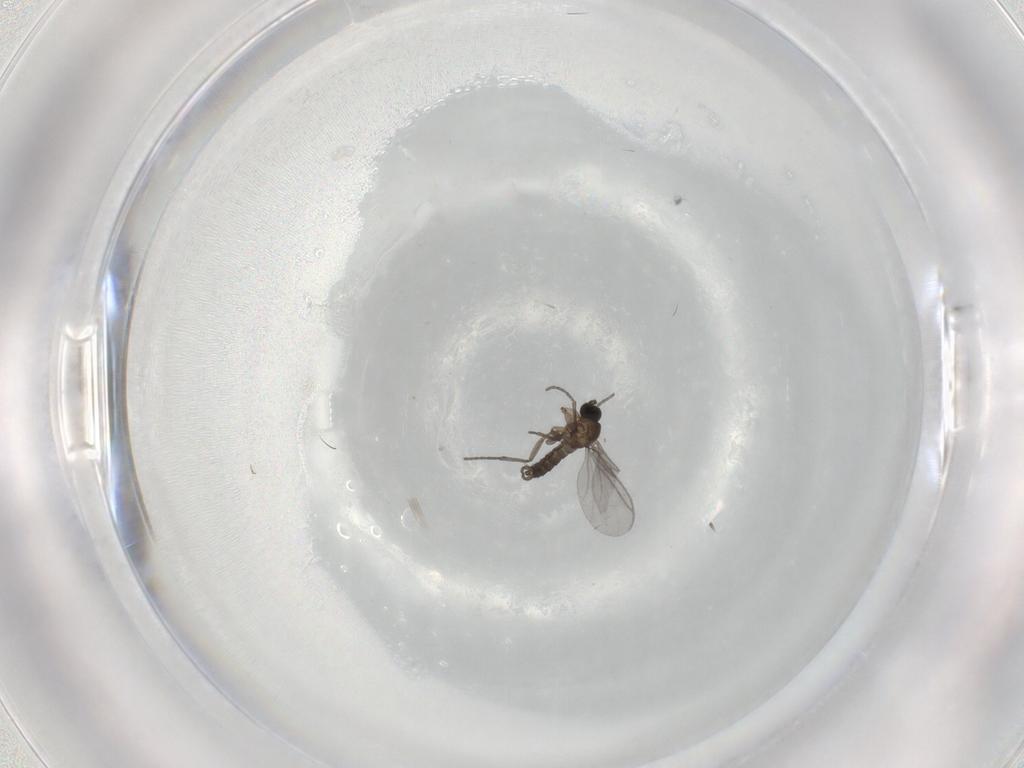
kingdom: Animalia
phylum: Arthropoda
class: Insecta
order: Diptera
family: Sciaridae
